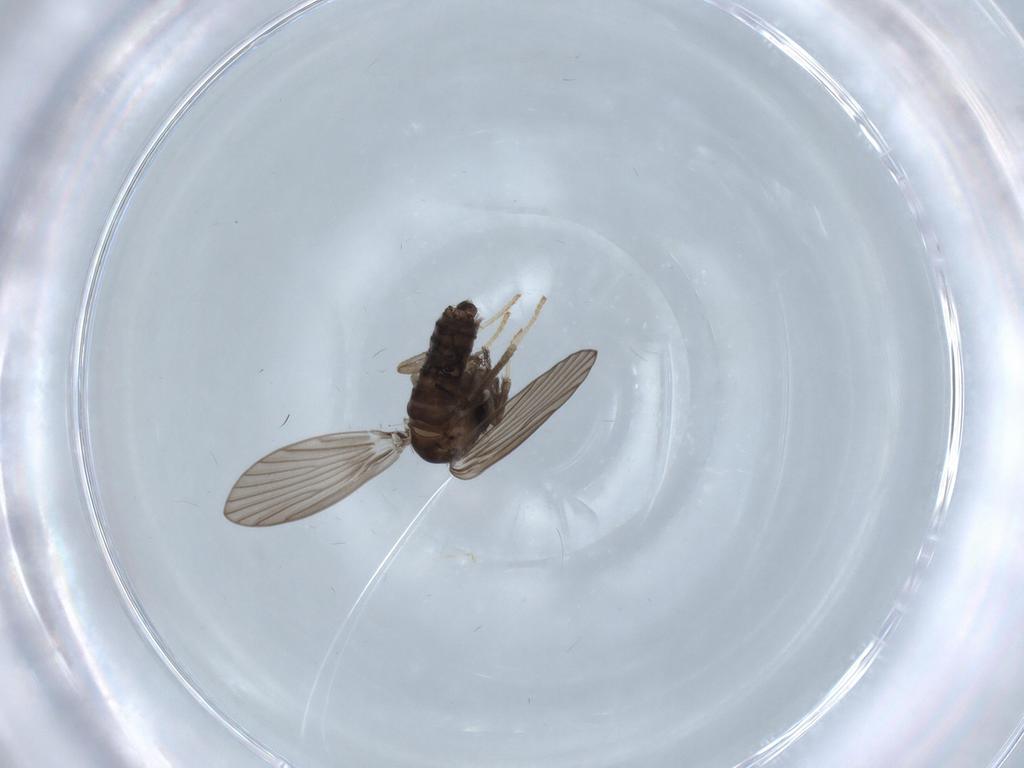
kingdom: Animalia
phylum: Arthropoda
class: Insecta
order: Diptera
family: Psychodidae
